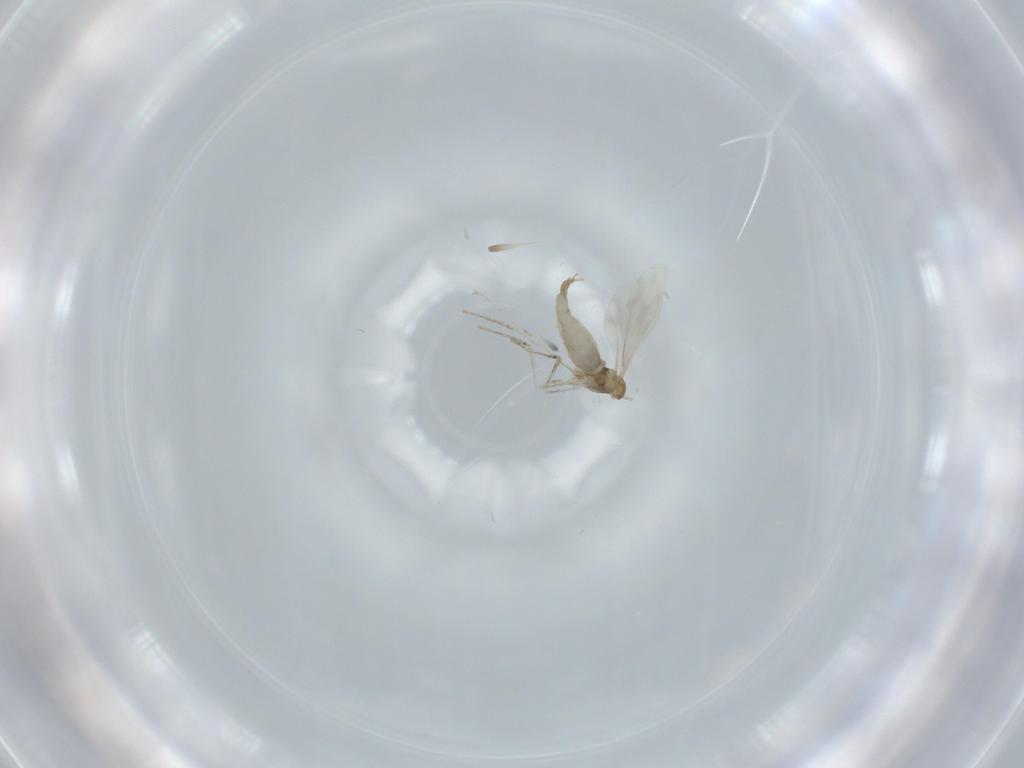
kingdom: Animalia
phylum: Arthropoda
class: Insecta
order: Diptera
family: Cecidomyiidae
